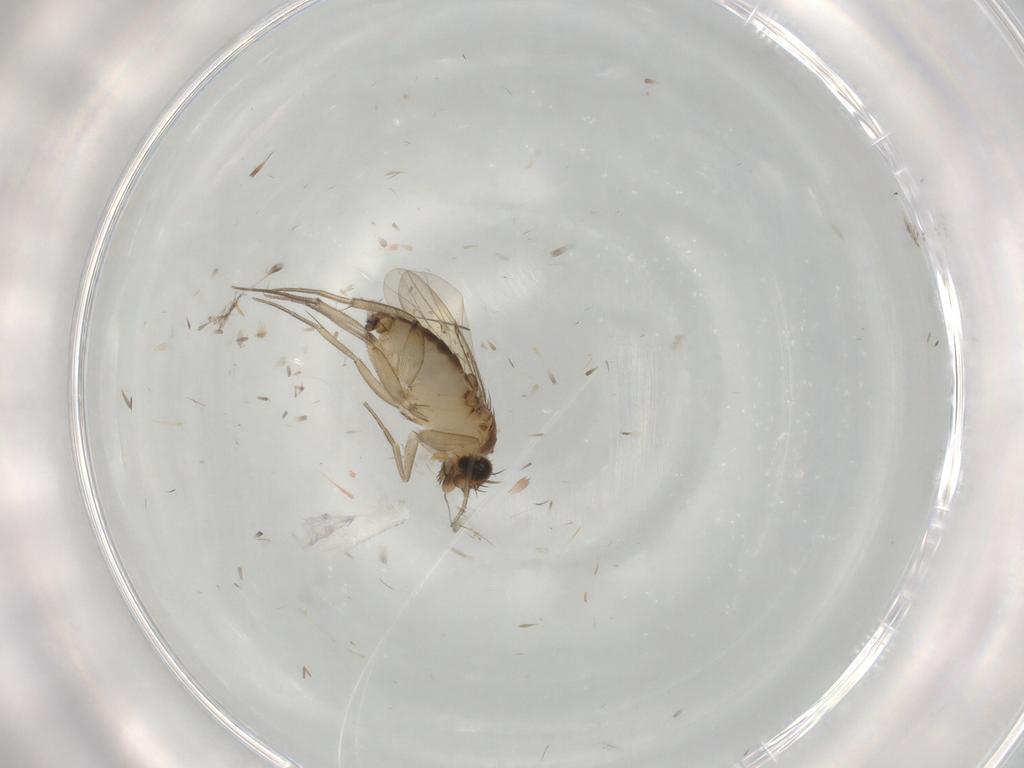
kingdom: Animalia
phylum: Arthropoda
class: Insecta
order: Diptera
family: Phoridae
